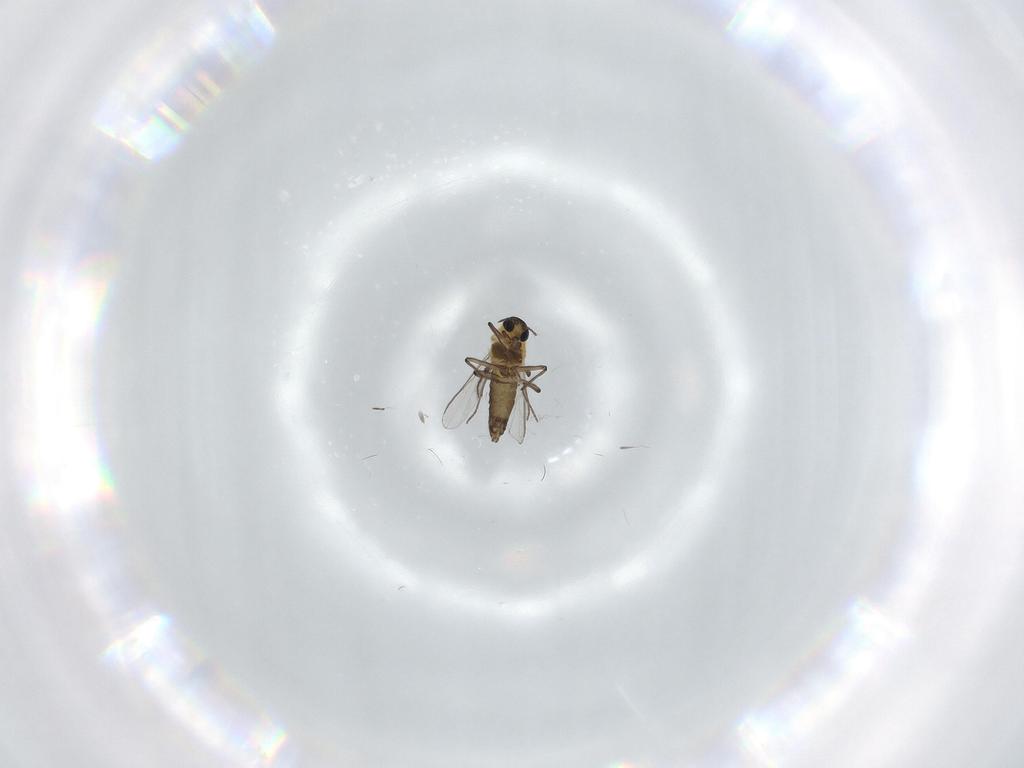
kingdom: Animalia
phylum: Arthropoda
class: Insecta
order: Diptera
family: Chironomidae
